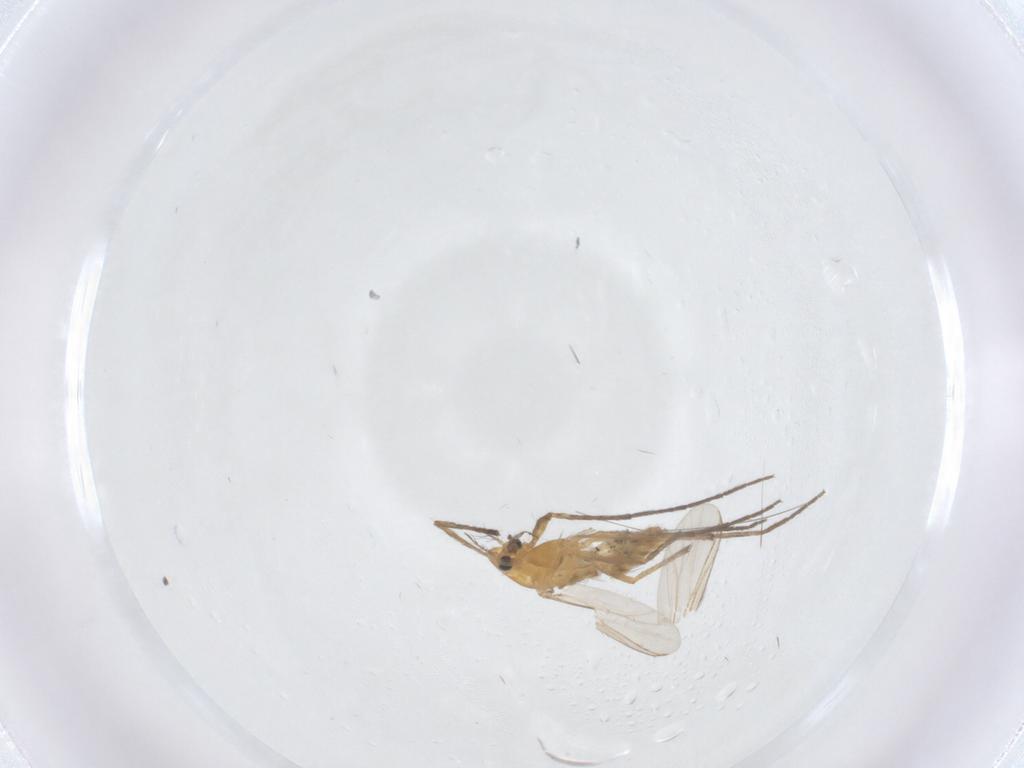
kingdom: Animalia
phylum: Arthropoda
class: Insecta
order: Diptera
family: Chironomidae
